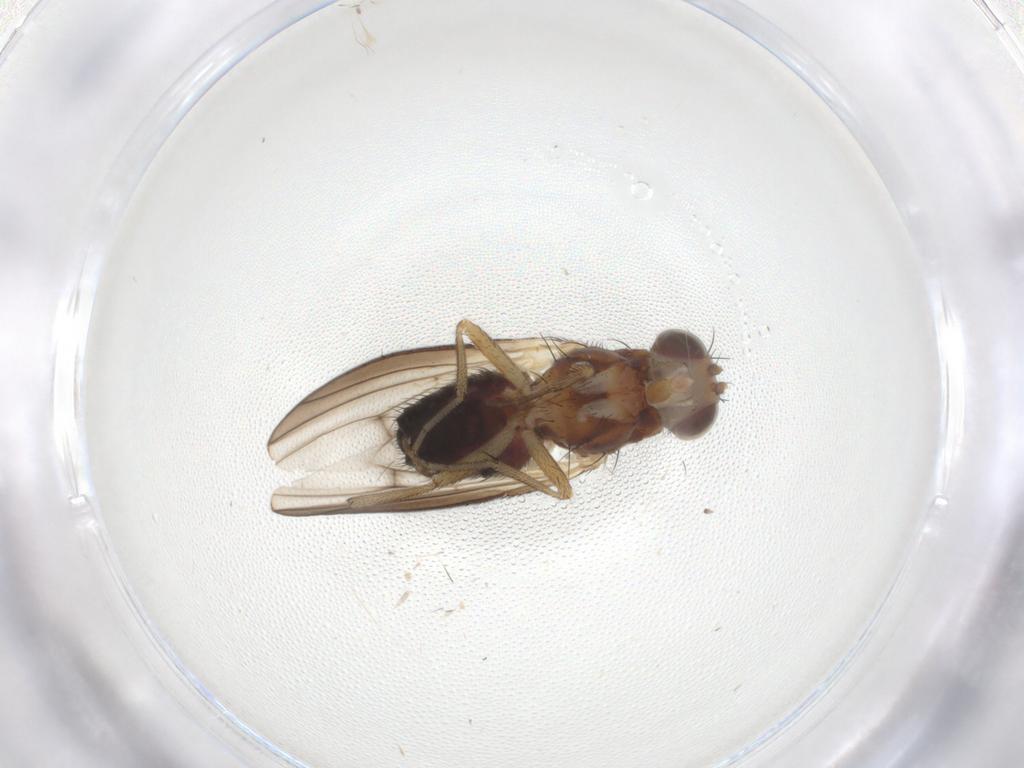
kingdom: Animalia
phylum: Arthropoda
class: Insecta
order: Diptera
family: Heleomyzidae
